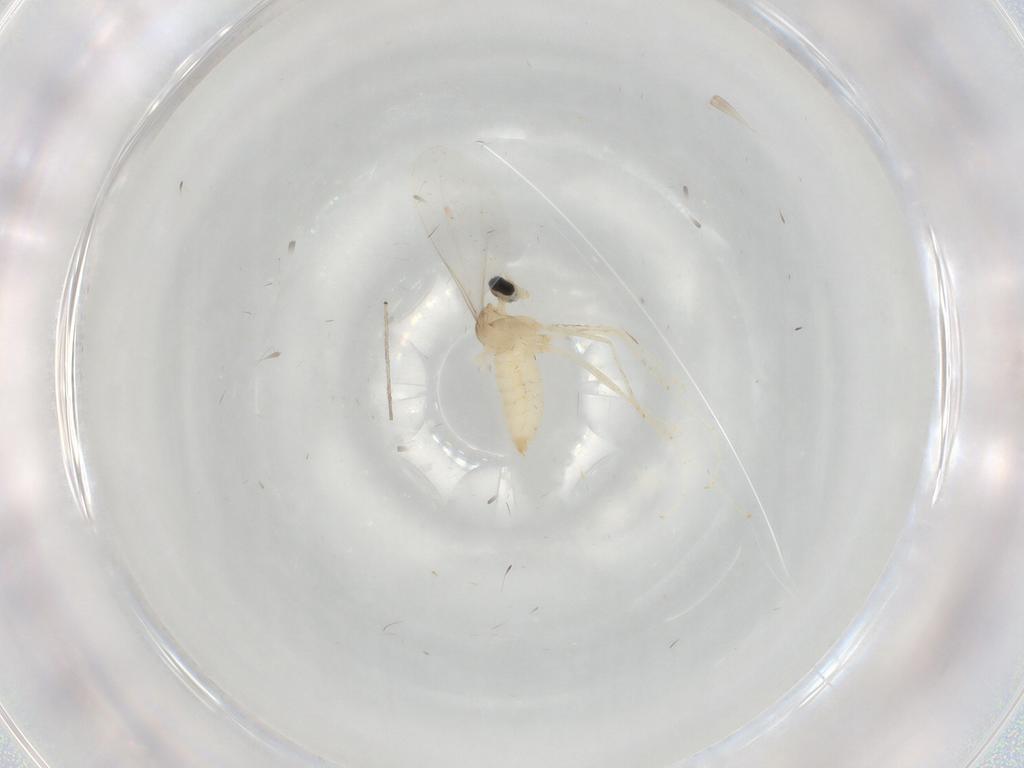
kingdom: Animalia
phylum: Arthropoda
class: Insecta
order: Diptera
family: Cecidomyiidae
